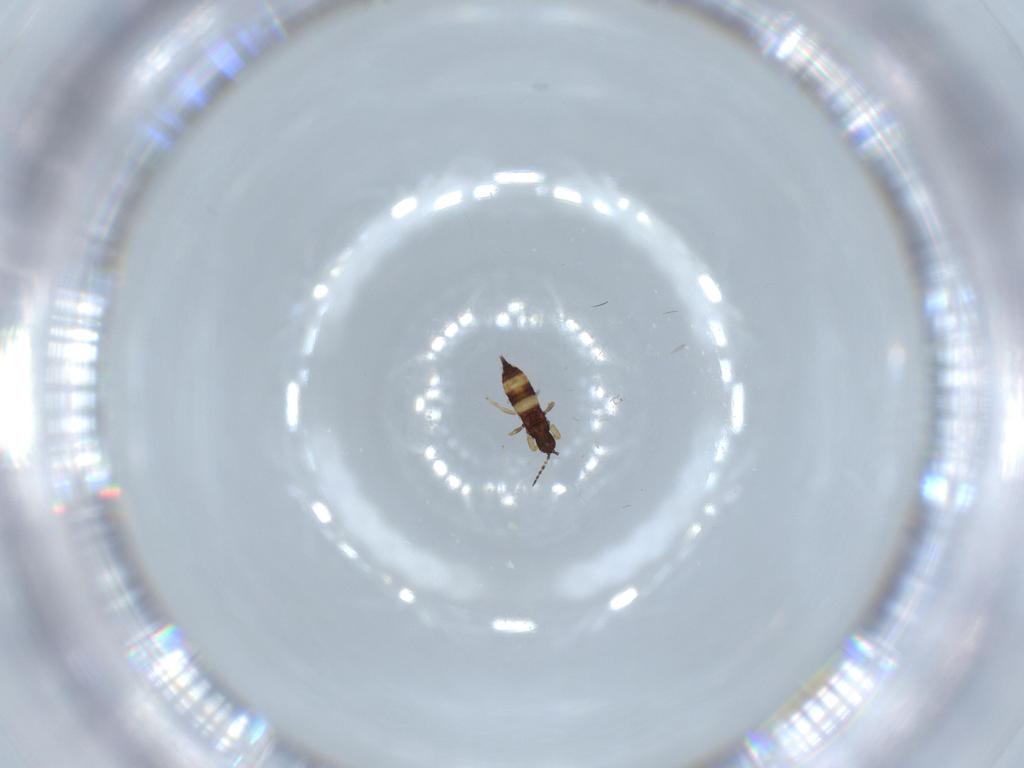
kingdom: Animalia
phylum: Arthropoda
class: Insecta
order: Thysanoptera
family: Phlaeothripidae
